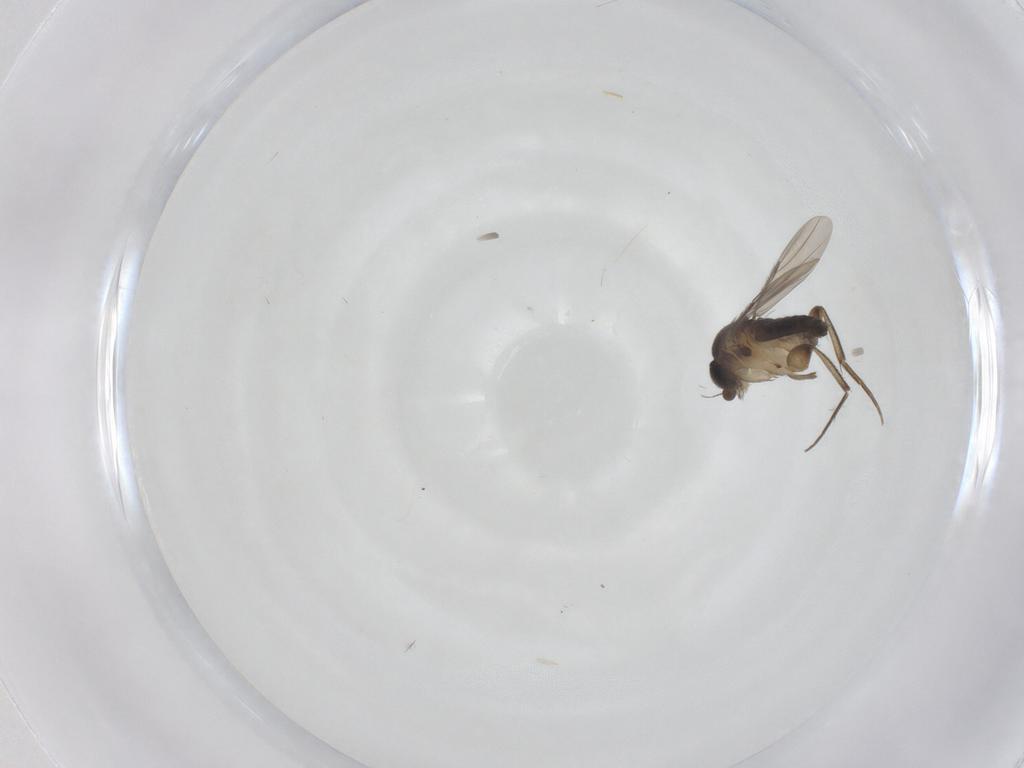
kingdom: Animalia
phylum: Arthropoda
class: Insecta
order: Diptera
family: Phoridae
